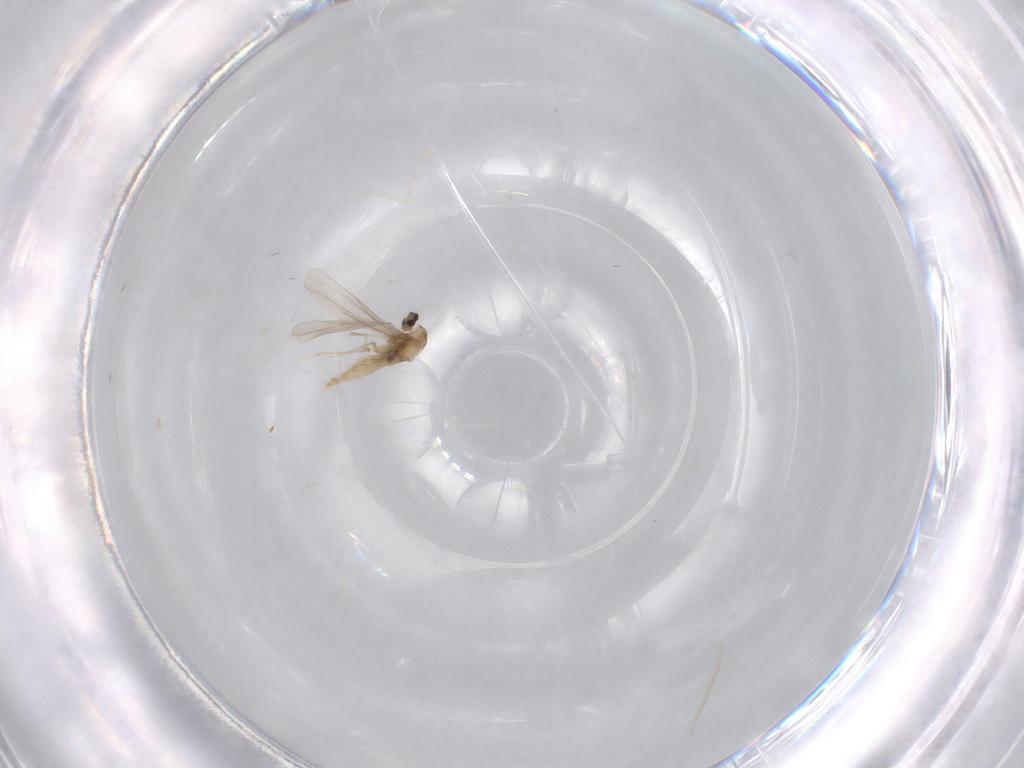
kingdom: Animalia
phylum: Arthropoda
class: Insecta
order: Diptera
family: Cecidomyiidae
